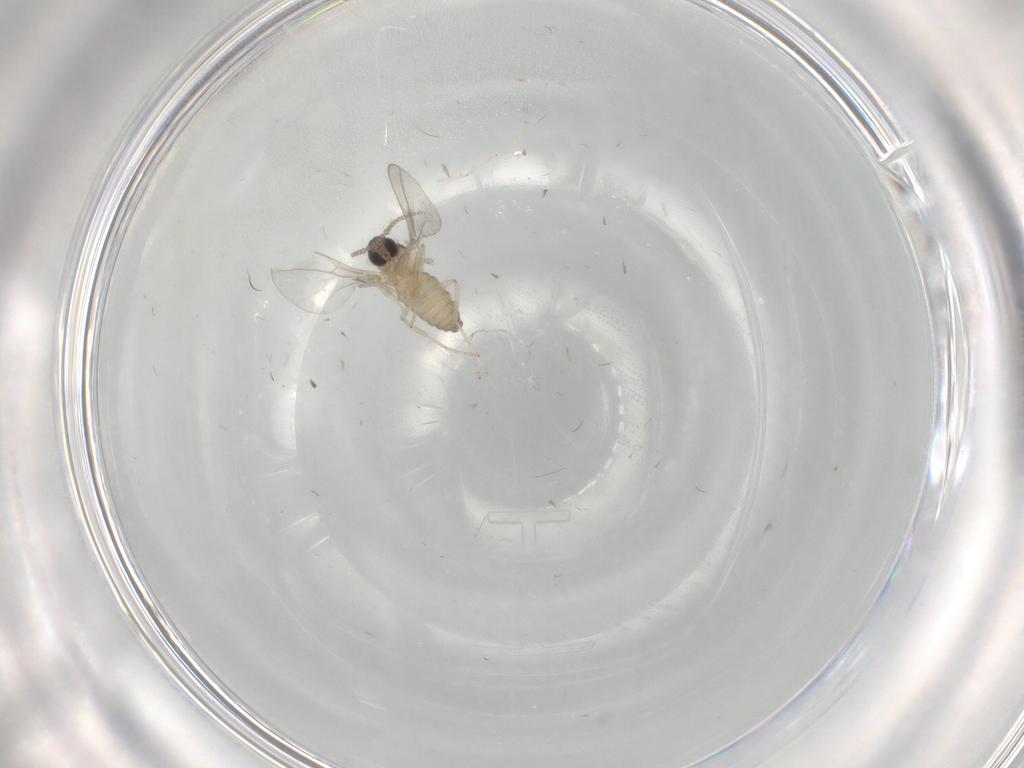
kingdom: Animalia
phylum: Arthropoda
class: Insecta
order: Diptera
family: Cecidomyiidae
